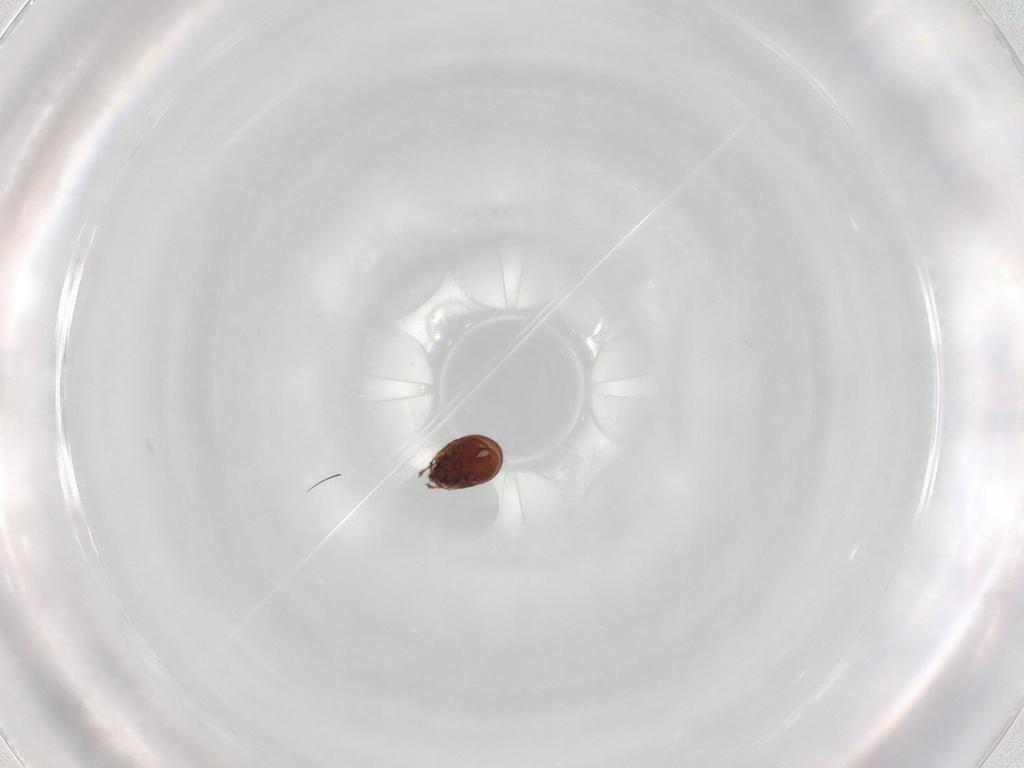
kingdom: Animalia
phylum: Arthropoda
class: Arachnida
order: Sarcoptiformes
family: Ceratozetidae
